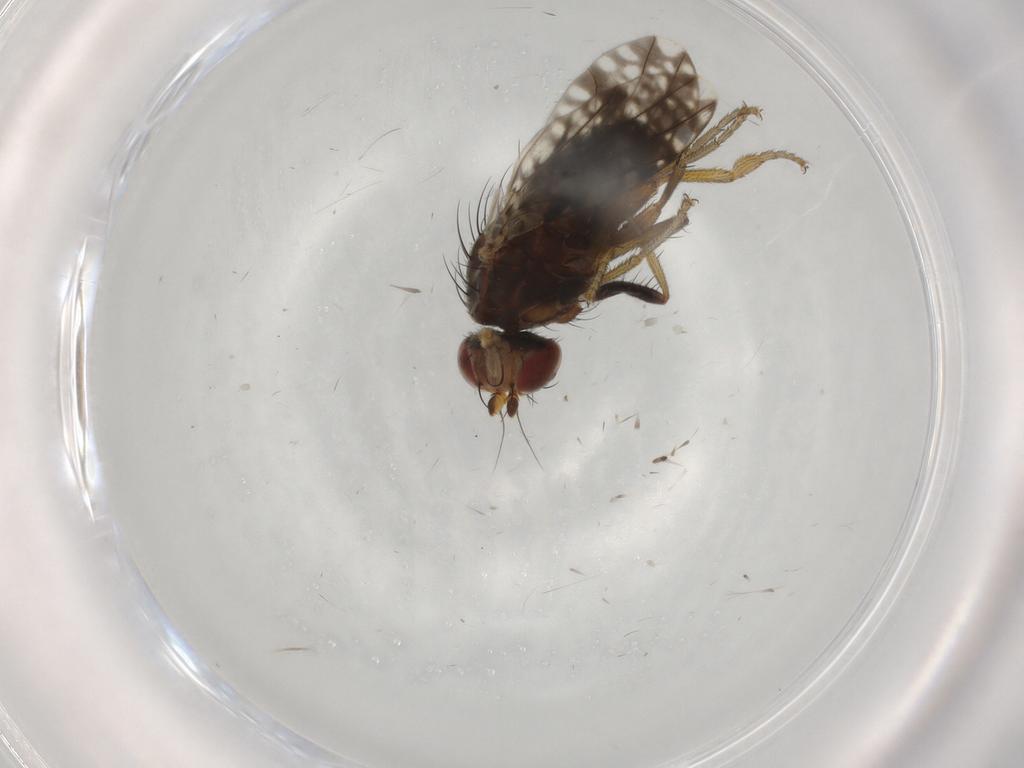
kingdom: Animalia
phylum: Arthropoda
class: Insecta
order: Diptera
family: Tephritidae
